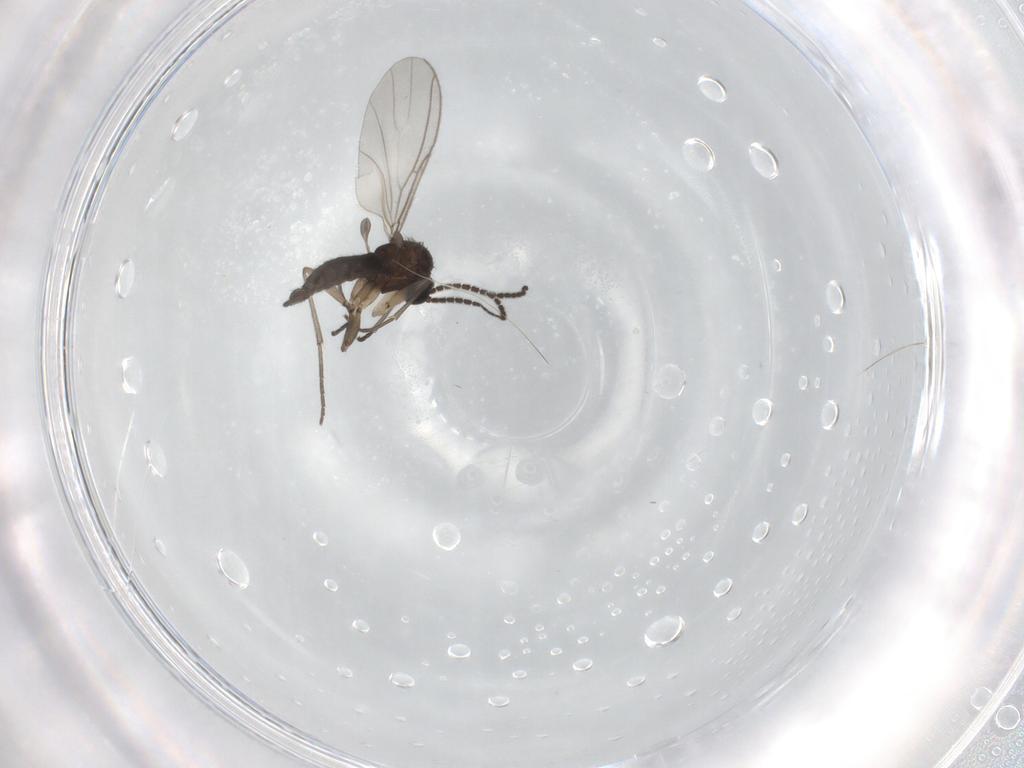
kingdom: Animalia
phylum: Arthropoda
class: Insecta
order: Diptera
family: Sciaridae
